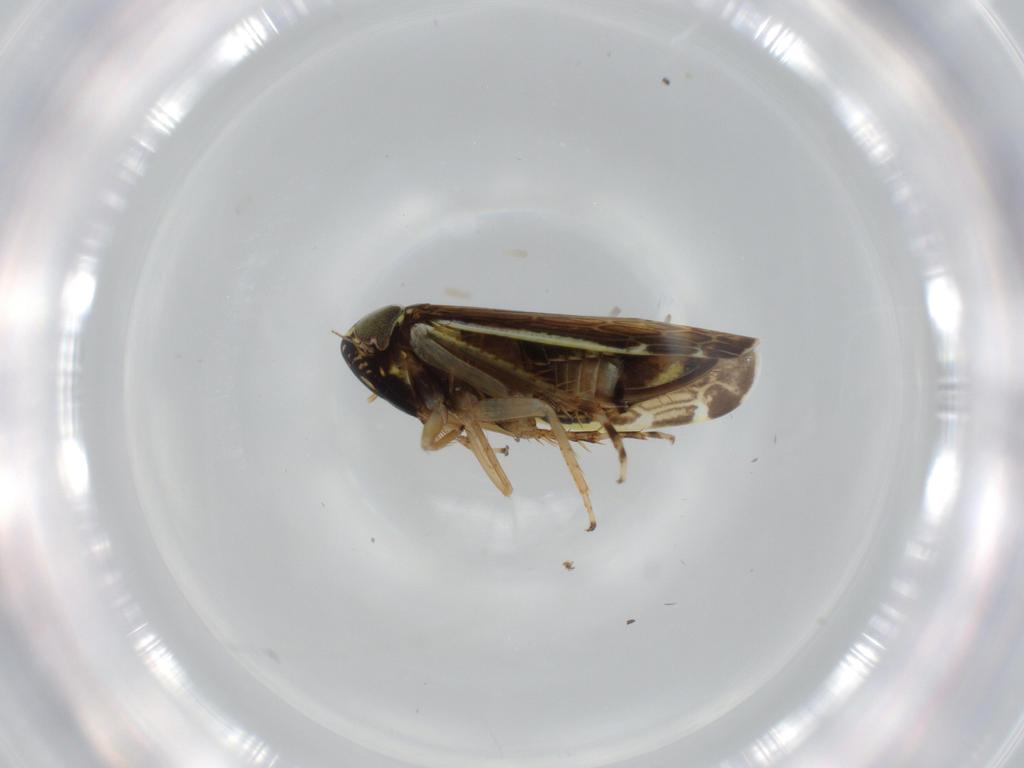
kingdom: Animalia
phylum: Arthropoda
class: Insecta
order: Hemiptera
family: Cicadellidae
